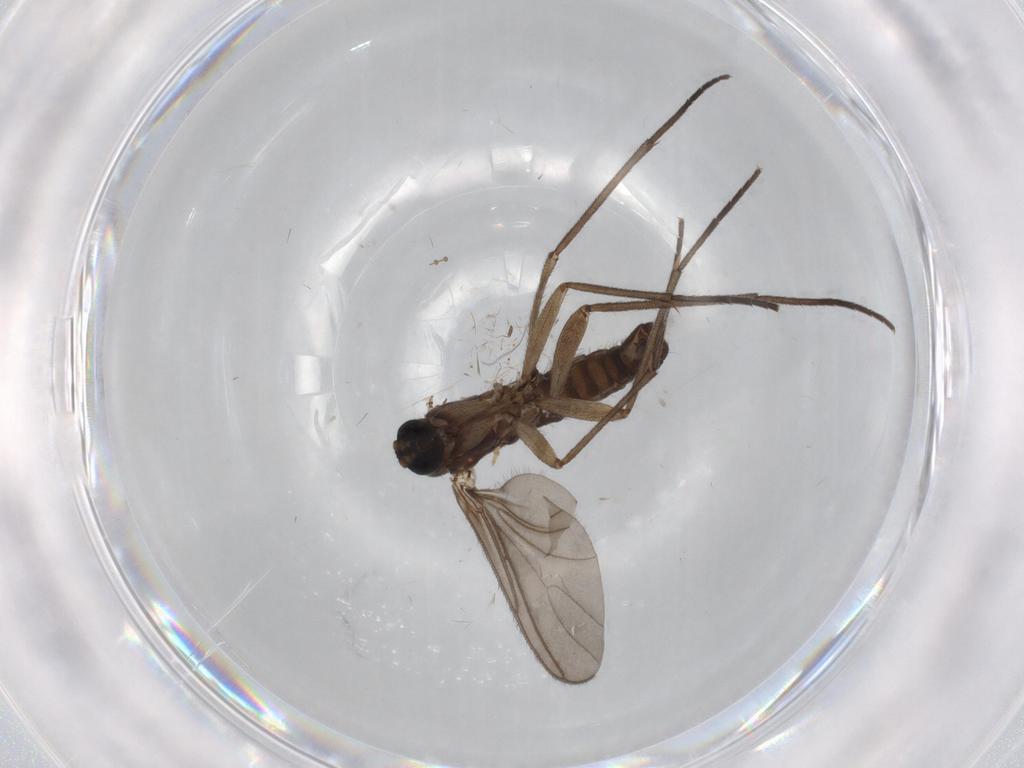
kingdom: Animalia
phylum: Arthropoda
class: Insecta
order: Diptera
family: Sciaridae
